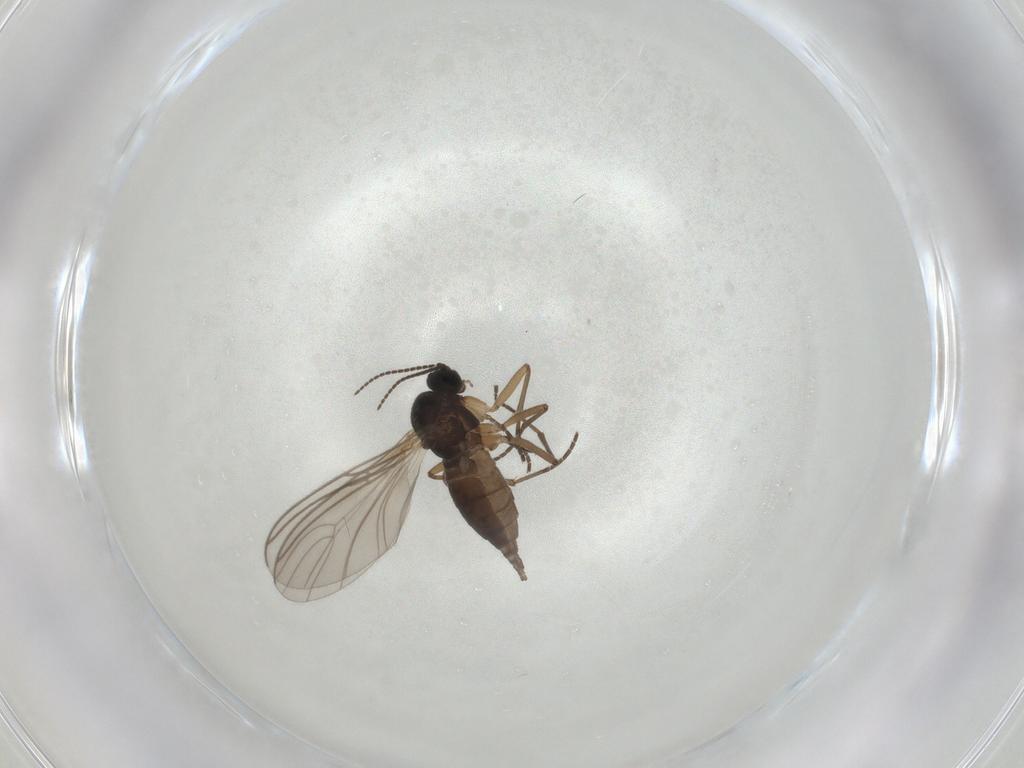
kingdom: Animalia
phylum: Arthropoda
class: Insecta
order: Diptera
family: Sciaridae
